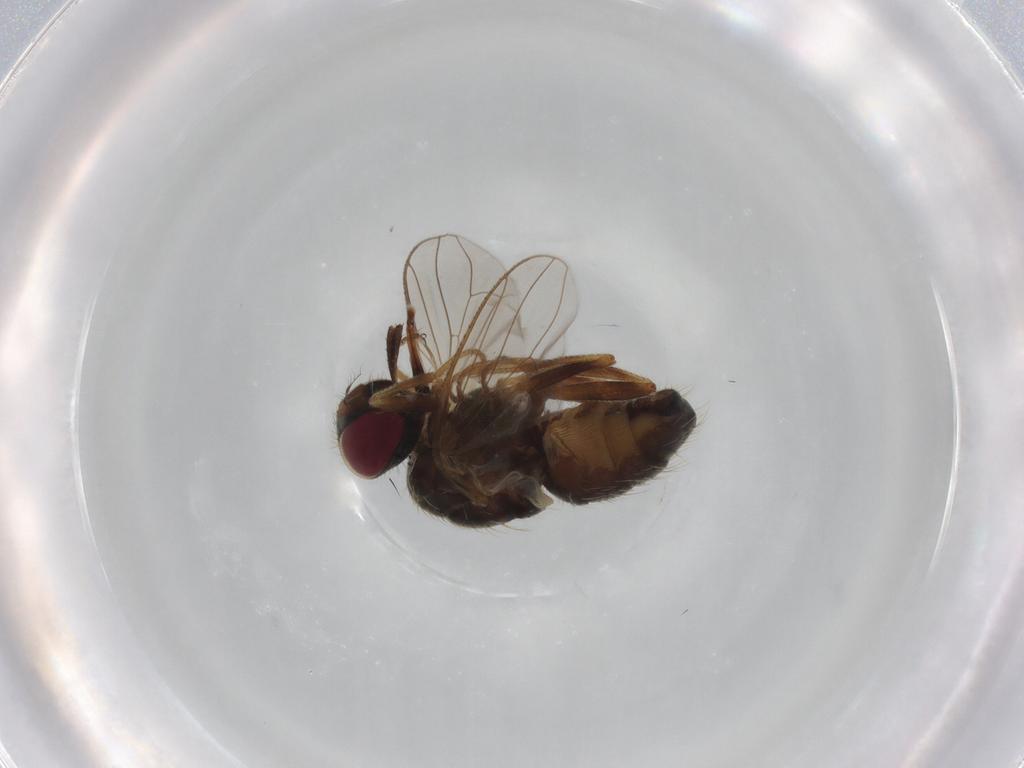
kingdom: Animalia
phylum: Arthropoda
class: Insecta
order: Diptera
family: Muscidae
